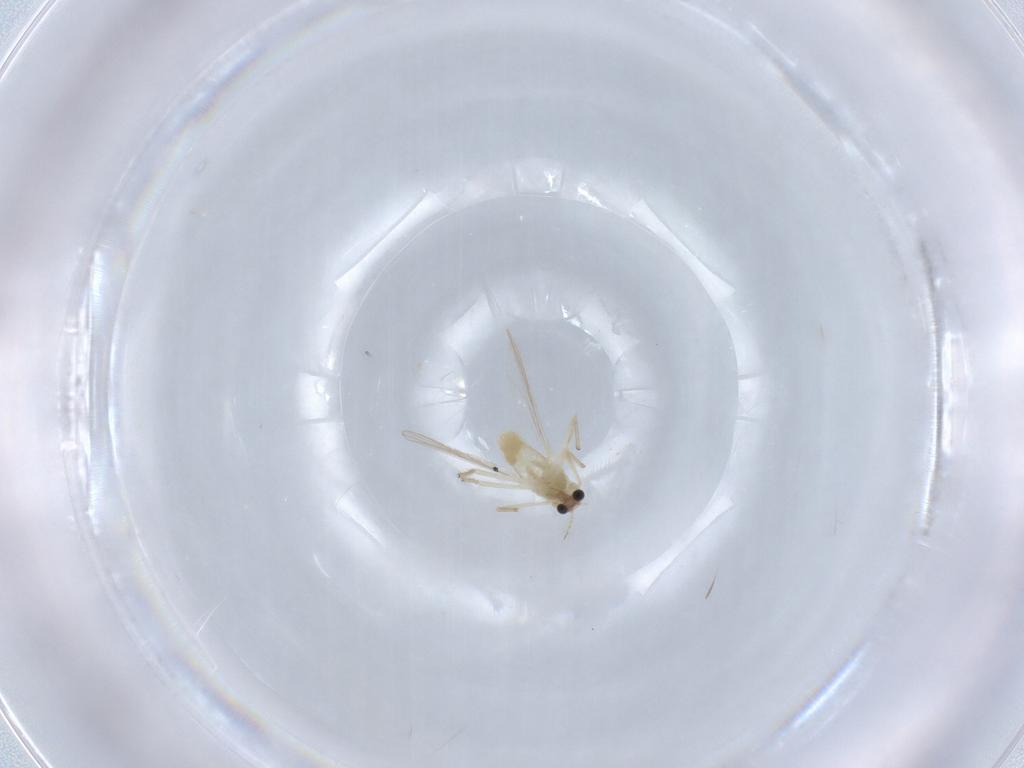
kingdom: Animalia
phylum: Arthropoda
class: Insecta
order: Diptera
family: Chironomidae
